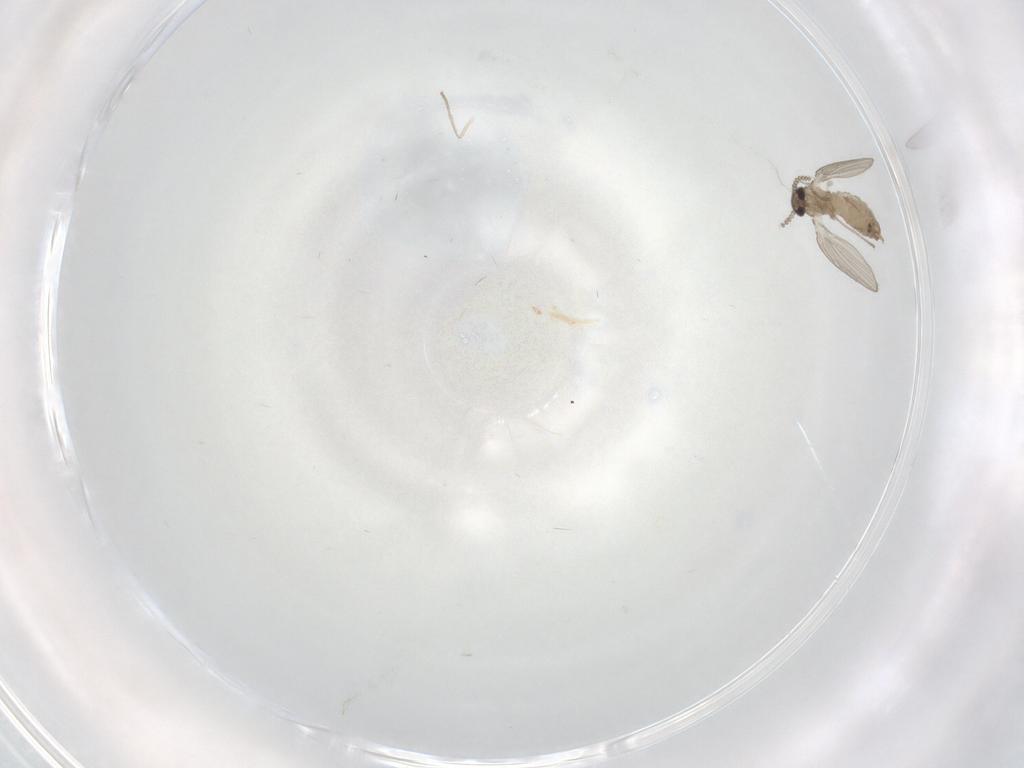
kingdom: Animalia
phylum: Arthropoda
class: Insecta
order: Diptera
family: Psychodidae
